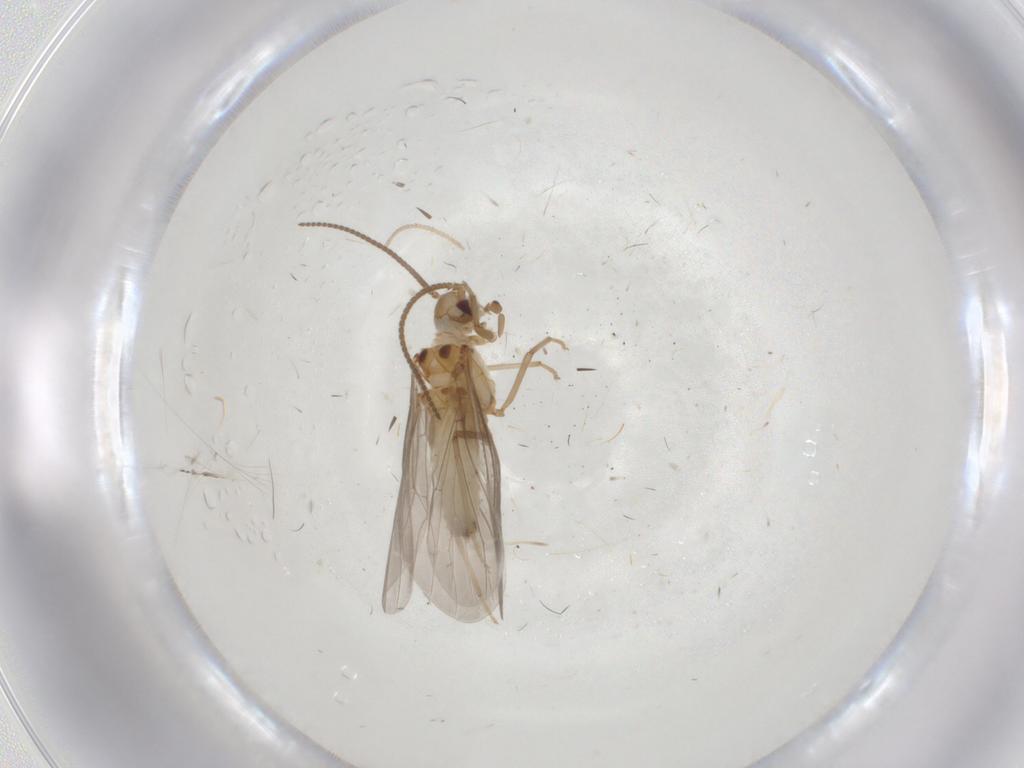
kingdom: Animalia
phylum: Arthropoda
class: Insecta
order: Neuroptera
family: Coniopterygidae
